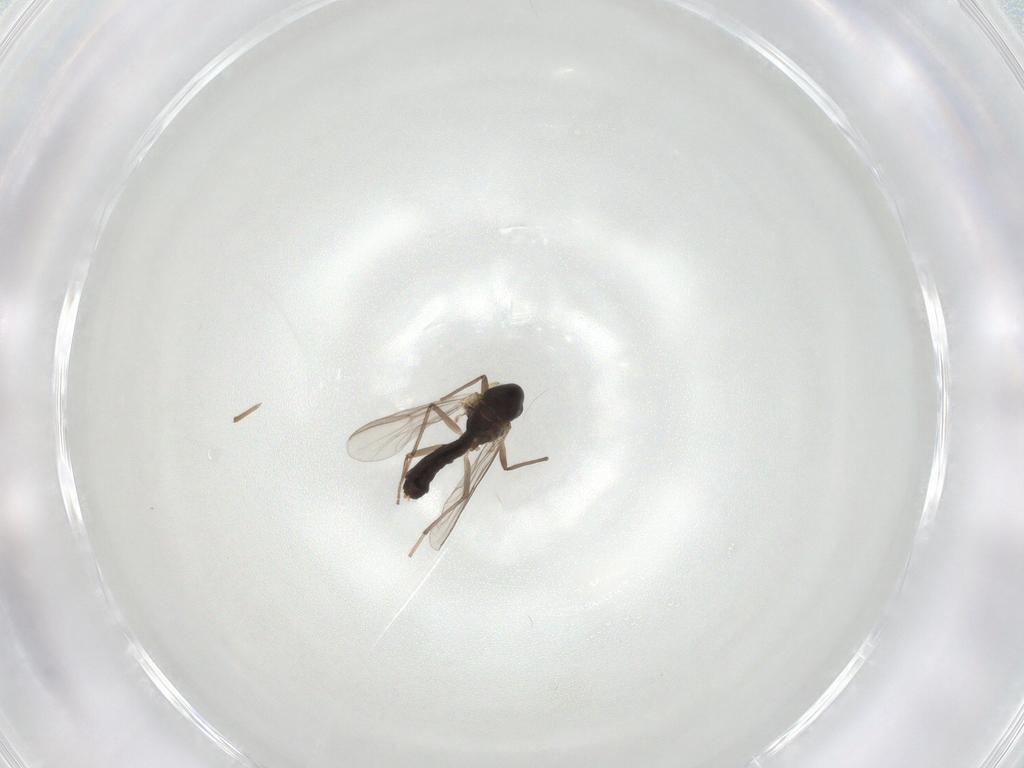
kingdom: Animalia
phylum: Arthropoda
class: Insecta
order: Diptera
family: Chironomidae
